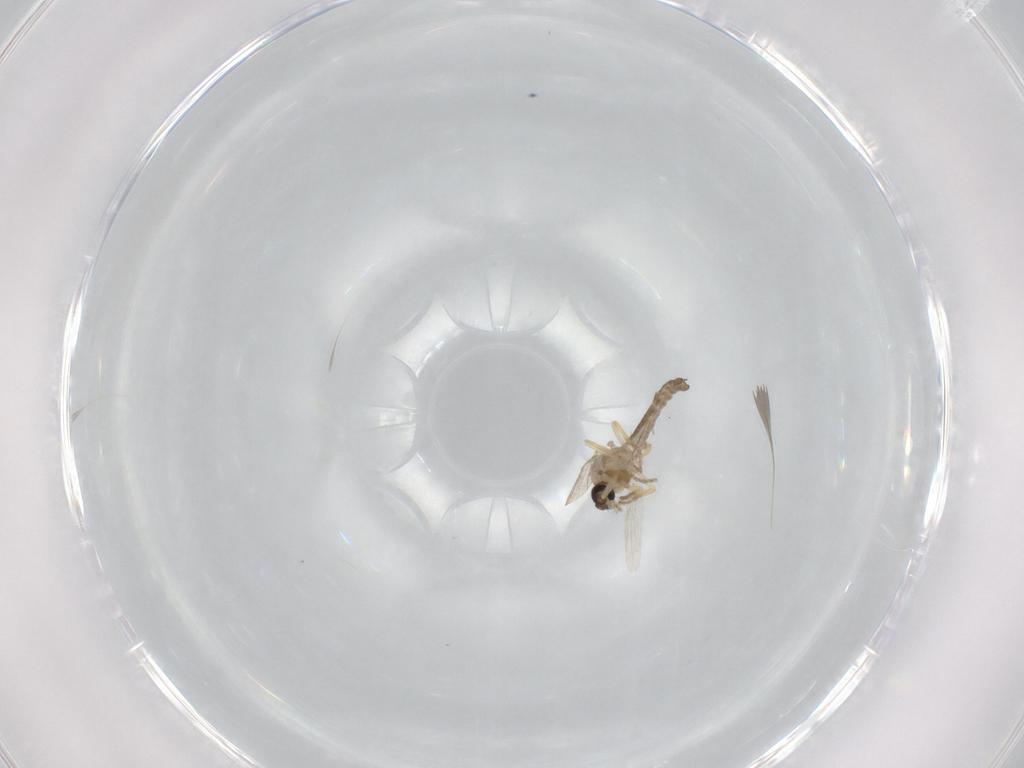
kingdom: Animalia
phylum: Arthropoda
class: Insecta
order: Diptera
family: Ceratopogonidae
